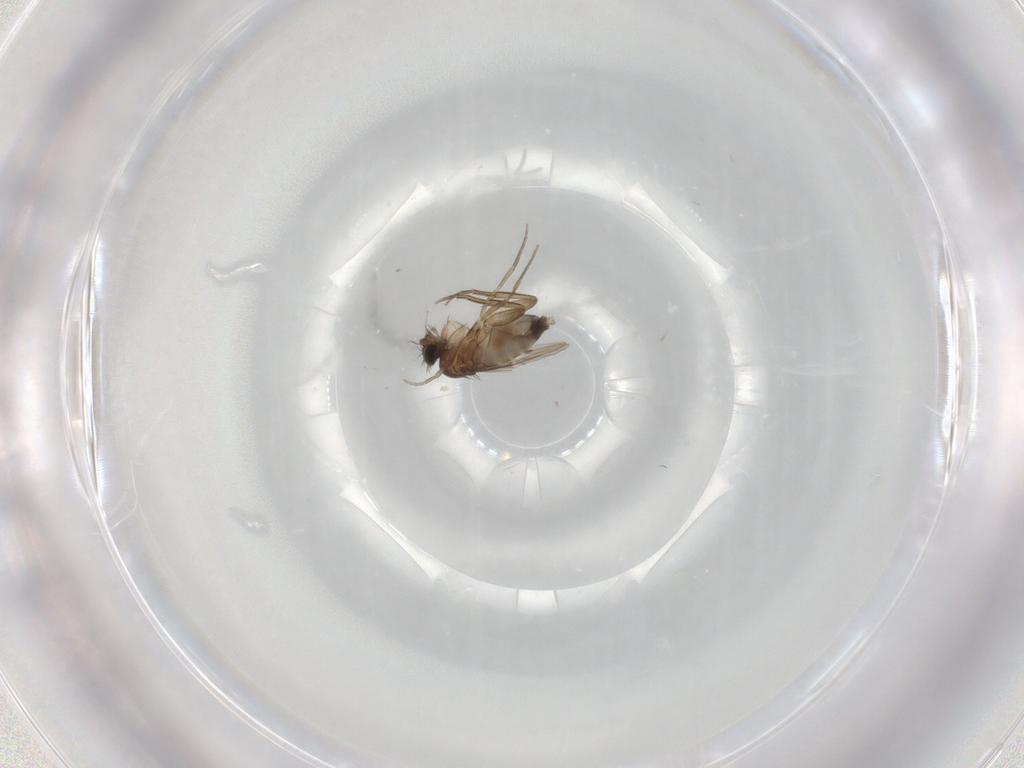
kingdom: Animalia
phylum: Arthropoda
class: Insecta
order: Diptera
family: Phoridae
